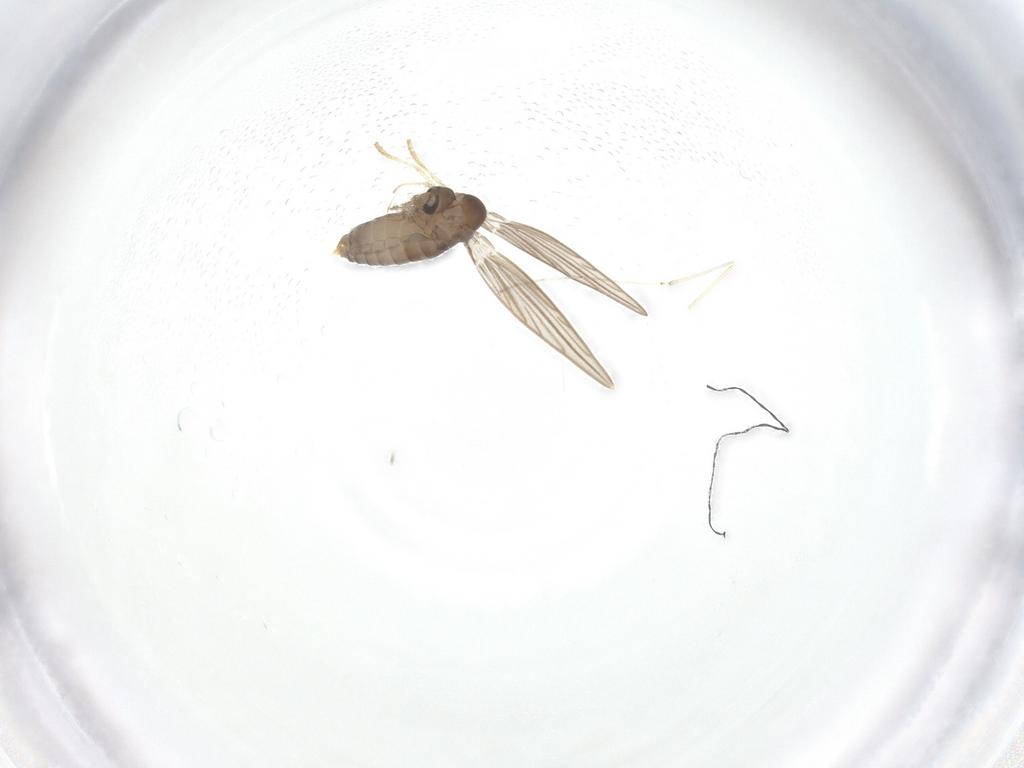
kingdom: Animalia
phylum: Arthropoda
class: Insecta
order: Diptera
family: Psychodidae
